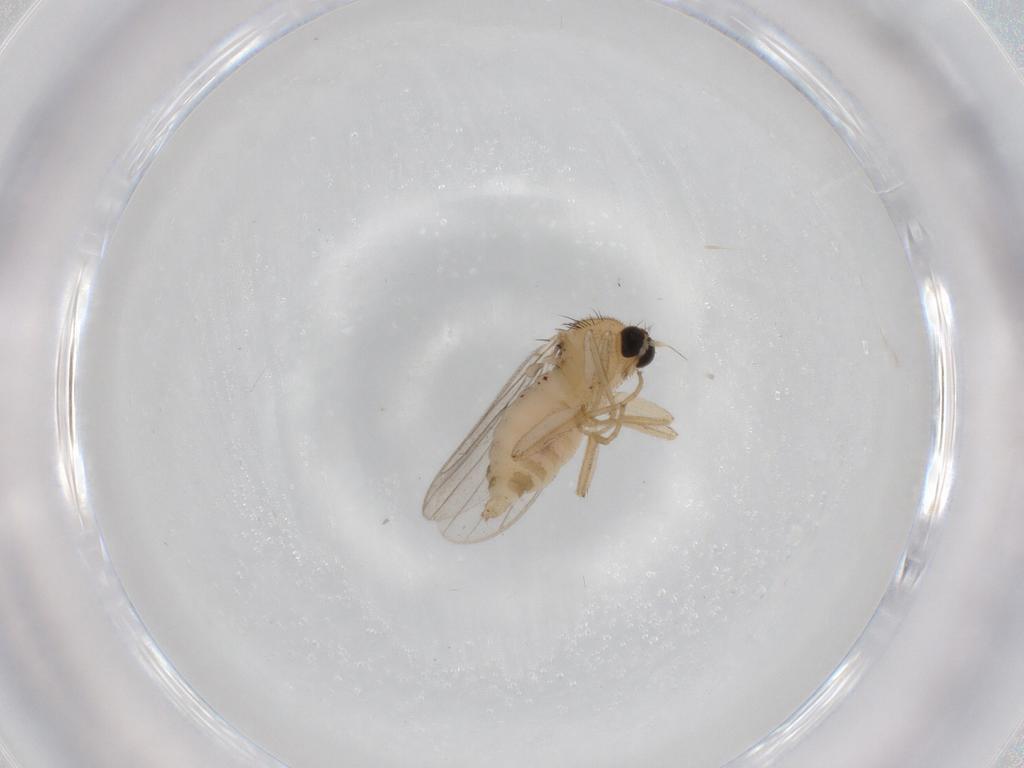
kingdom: Animalia
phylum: Arthropoda
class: Insecta
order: Diptera
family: Hybotidae
